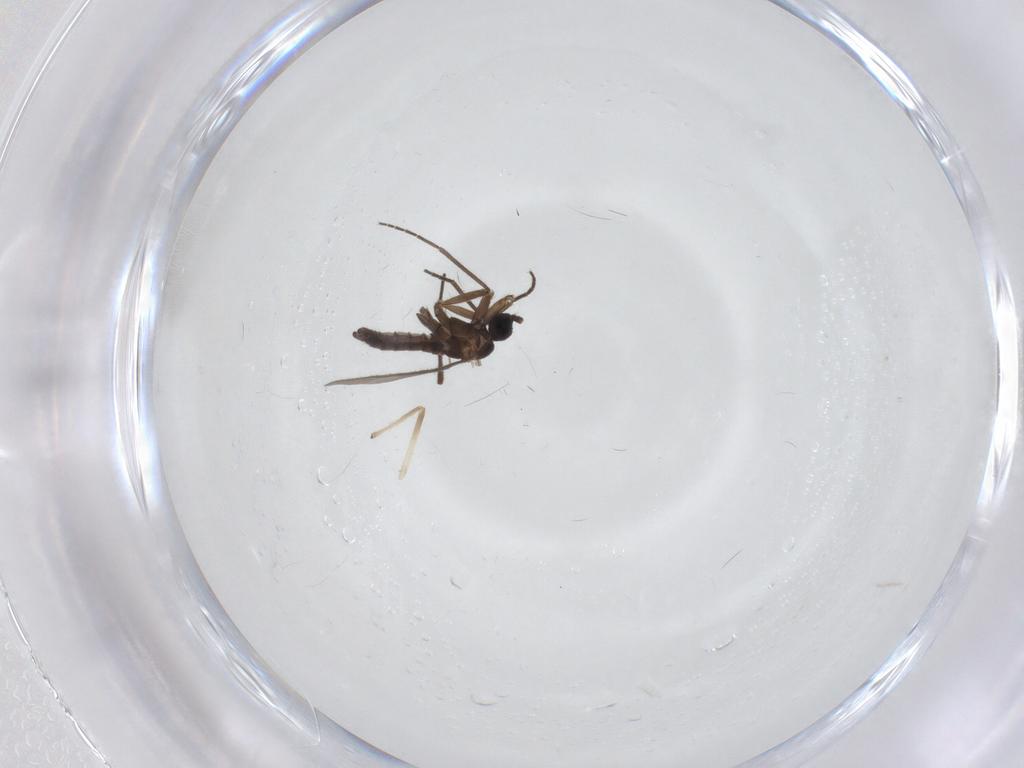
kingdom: Animalia
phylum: Arthropoda
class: Insecta
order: Diptera
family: Sciaridae
